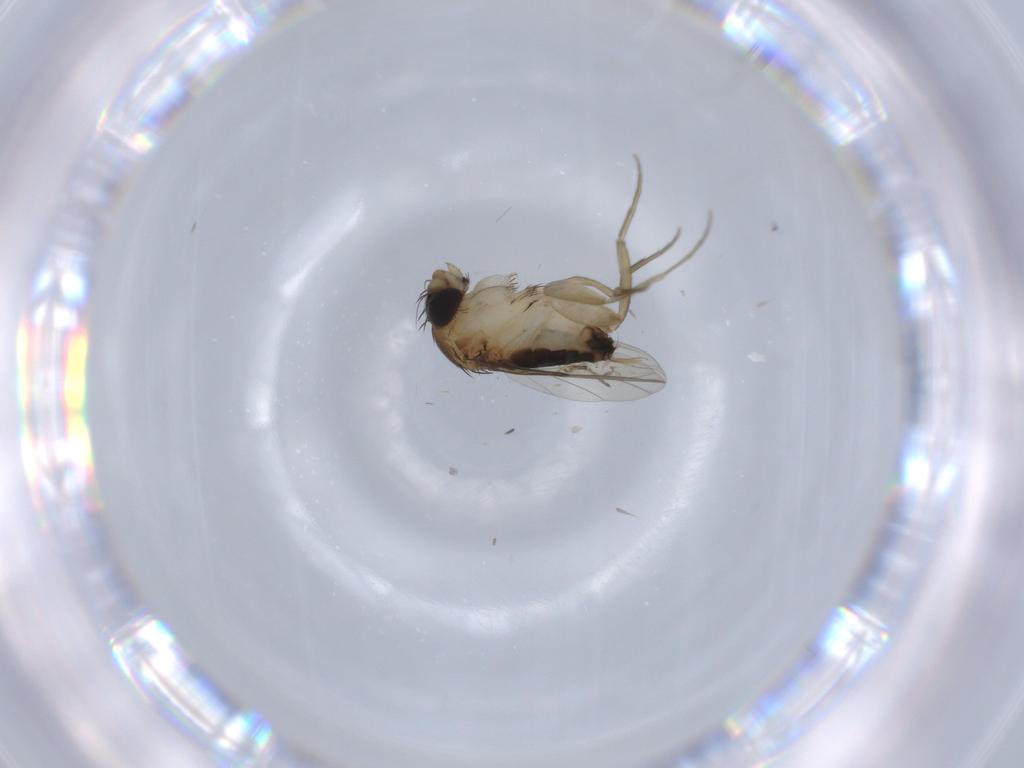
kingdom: Animalia
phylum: Arthropoda
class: Insecta
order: Diptera
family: Phoridae
